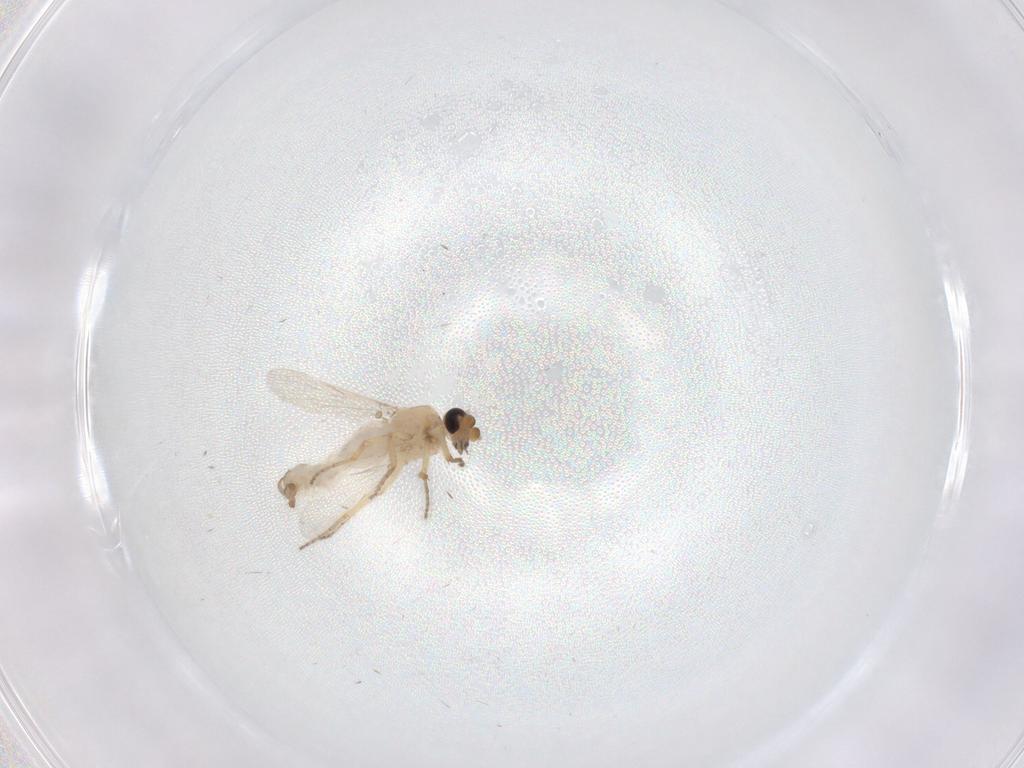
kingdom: Animalia
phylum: Arthropoda
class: Insecta
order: Diptera
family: Ceratopogonidae
